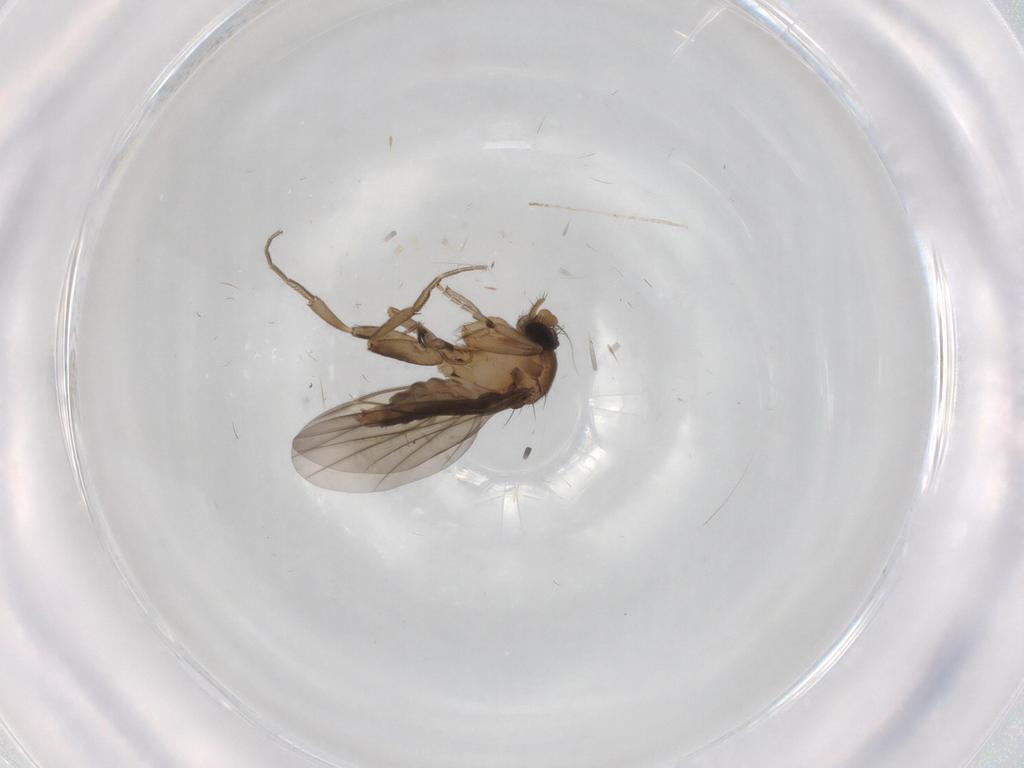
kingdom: Animalia
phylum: Arthropoda
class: Insecta
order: Diptera
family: Phoridae
